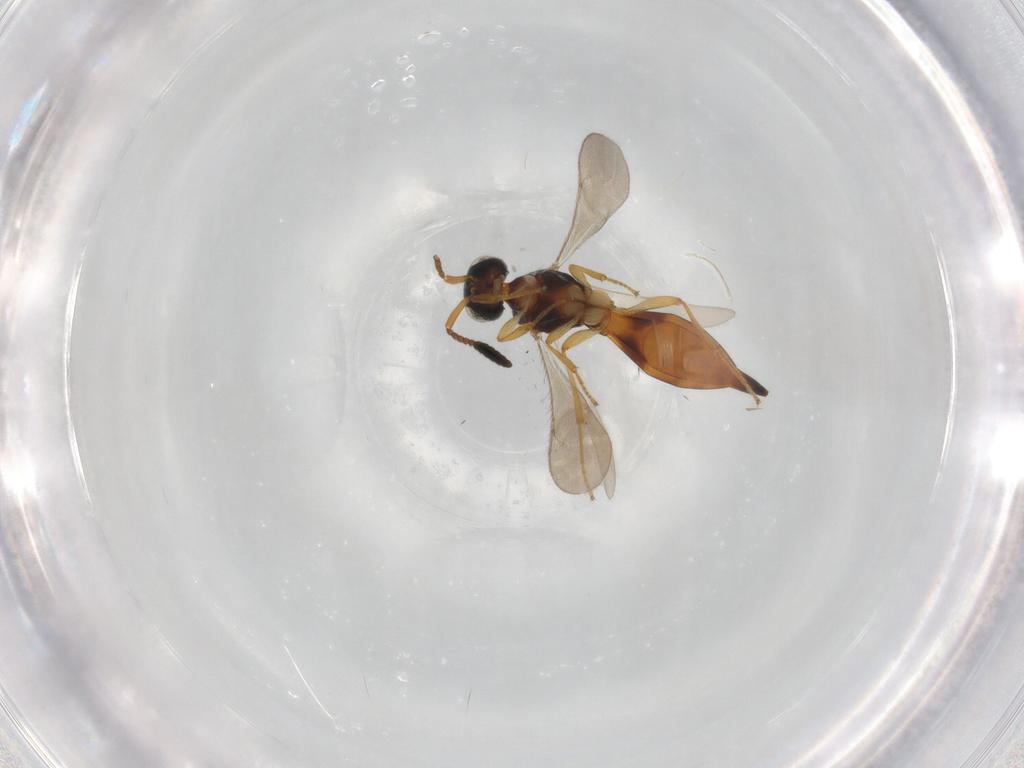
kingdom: Animalia
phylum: Arthropoda
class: Insecta
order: Hymenoptera
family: Scelionidae
